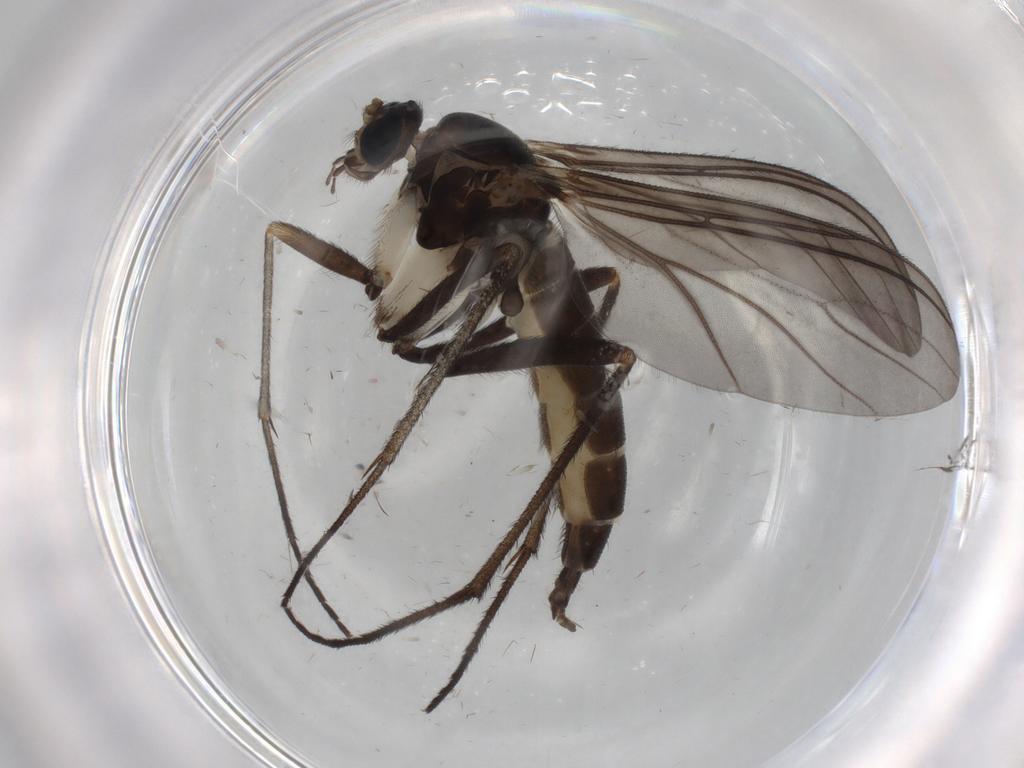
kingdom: Animalia
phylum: Arthropoda
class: Insecta
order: Diptera
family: Sciaridae
